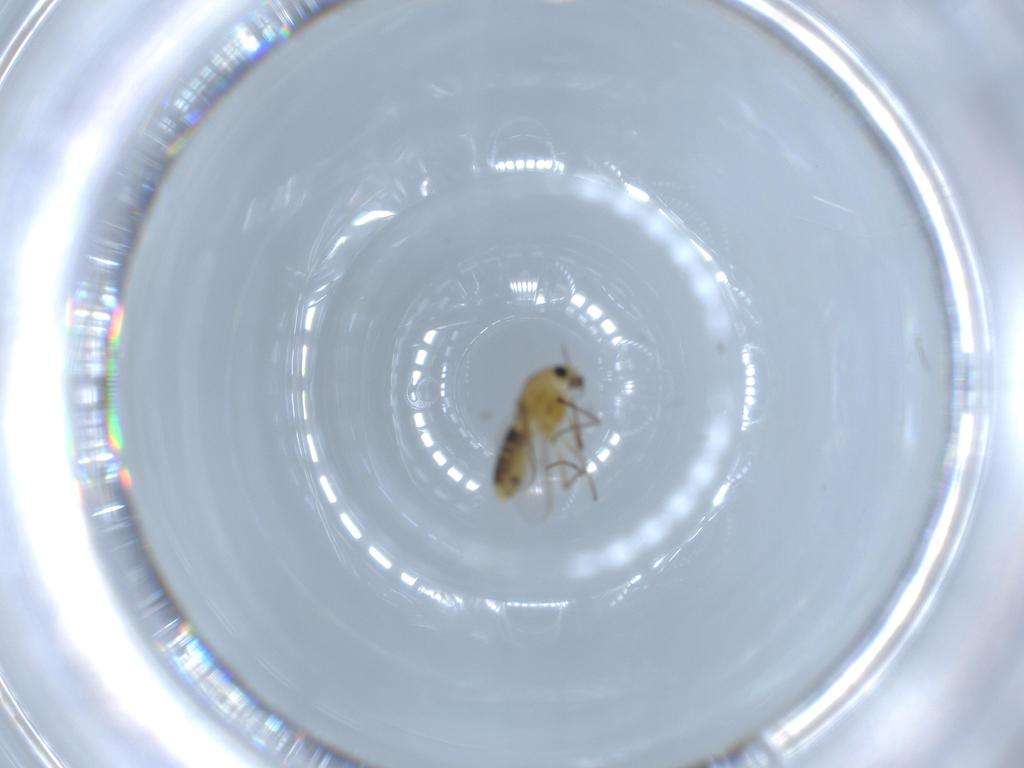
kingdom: Animalia
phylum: Arthropoda
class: Insecta
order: Diptera
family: Chironomidae
